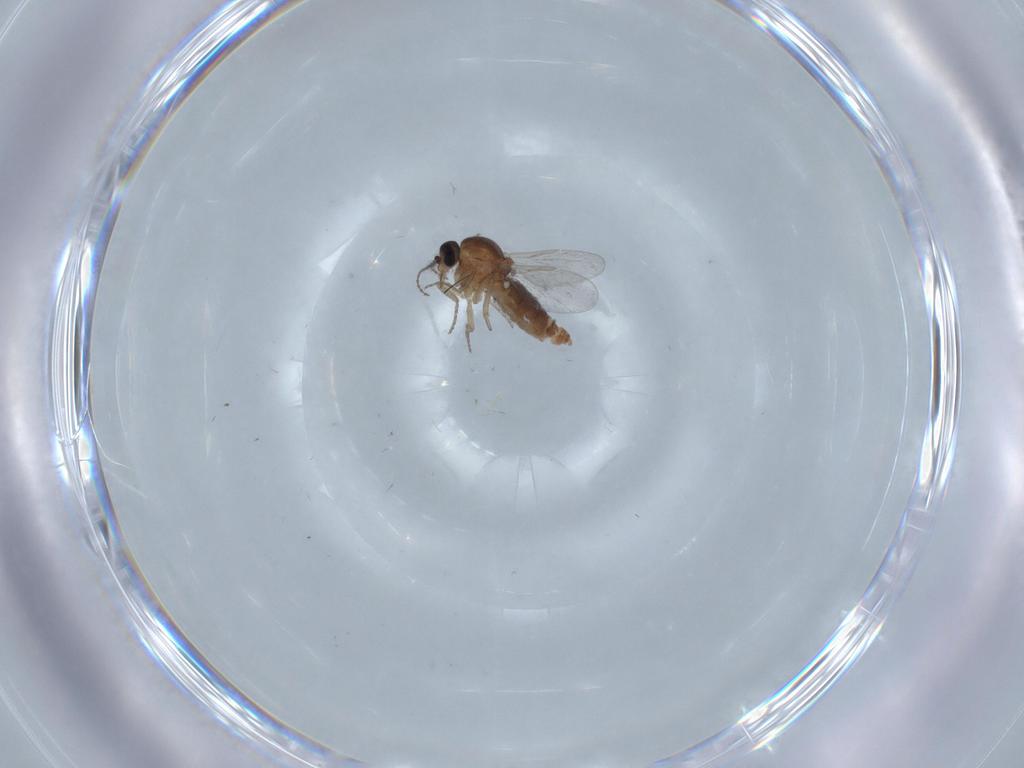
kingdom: Animalia
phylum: Arthropoda
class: Insecta
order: Diptera
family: Ceratopogonidae
